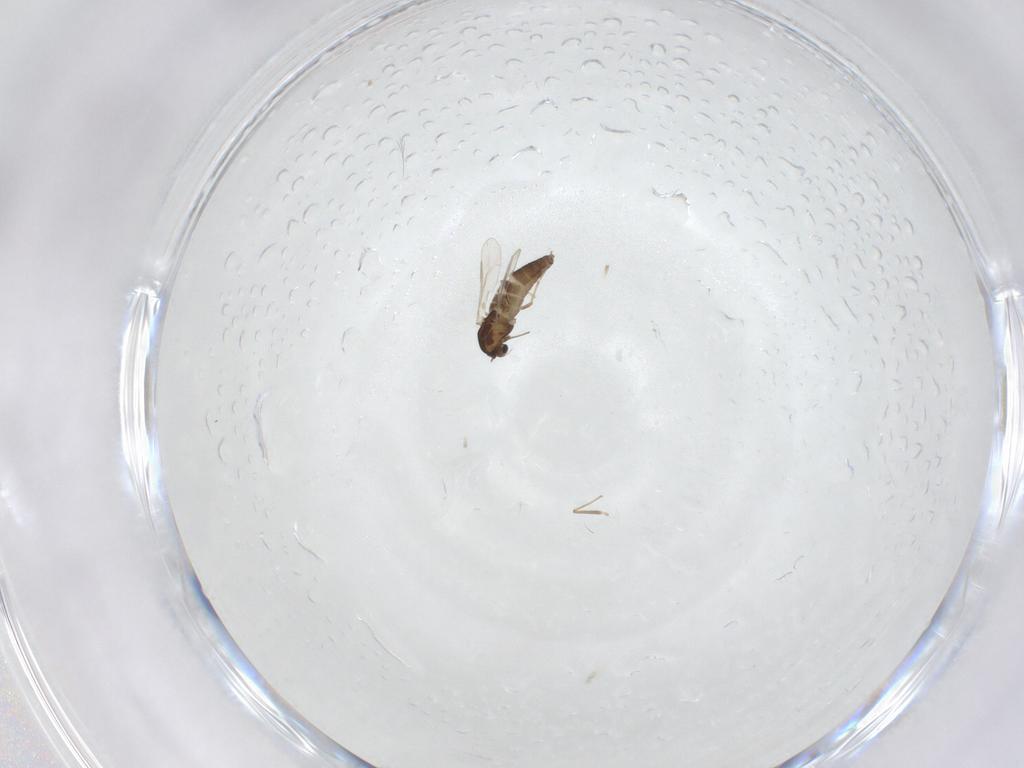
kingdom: Animalia
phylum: Arthropoda
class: Insecta
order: Diptera
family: Chironomidae
